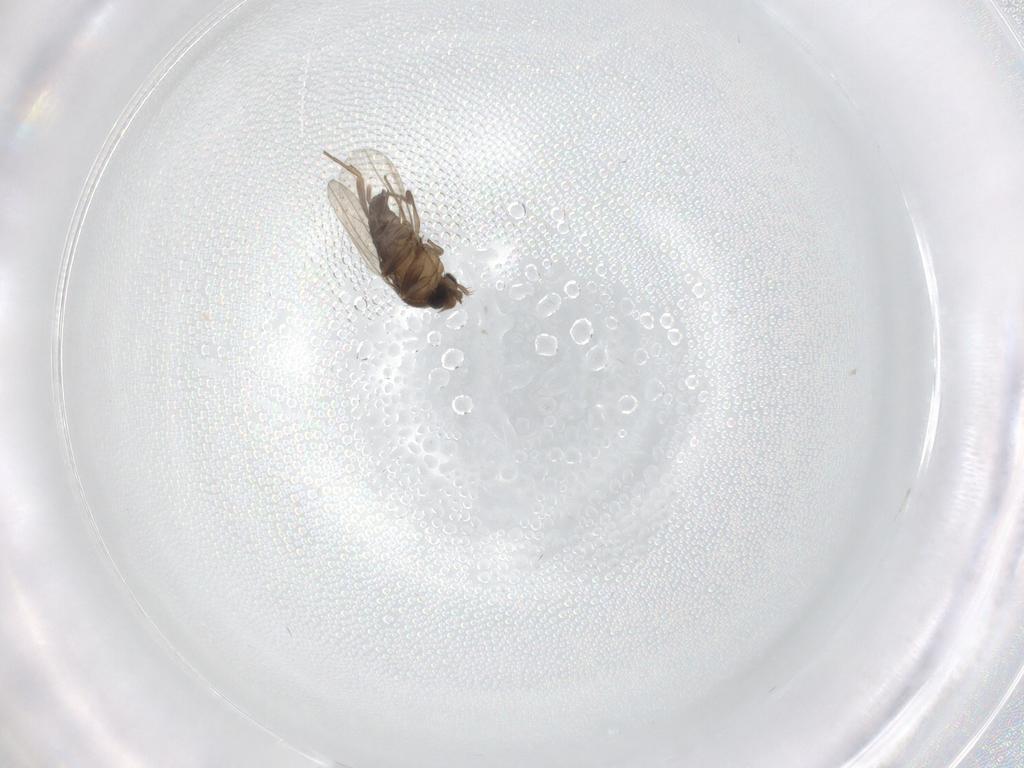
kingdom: Animalia
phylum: Arthropoda
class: Insecta
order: Diptera
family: Phoridae
